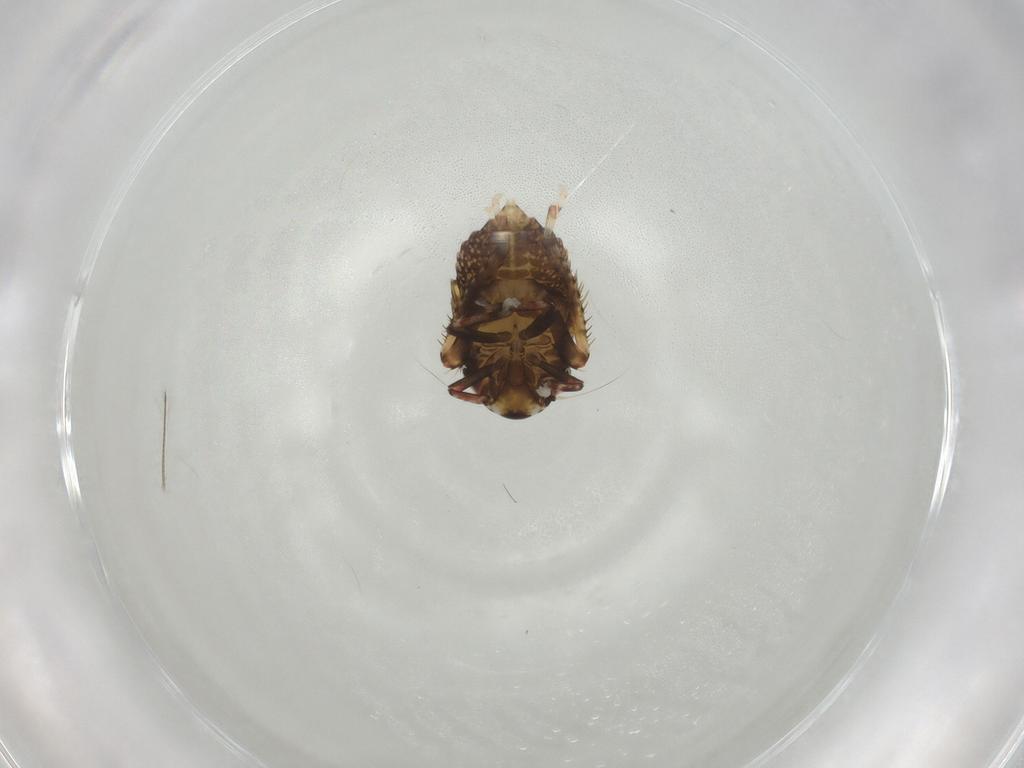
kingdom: Animalia
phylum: Arthropoda
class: Insecta
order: Hemiptera
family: Cicadellidae
